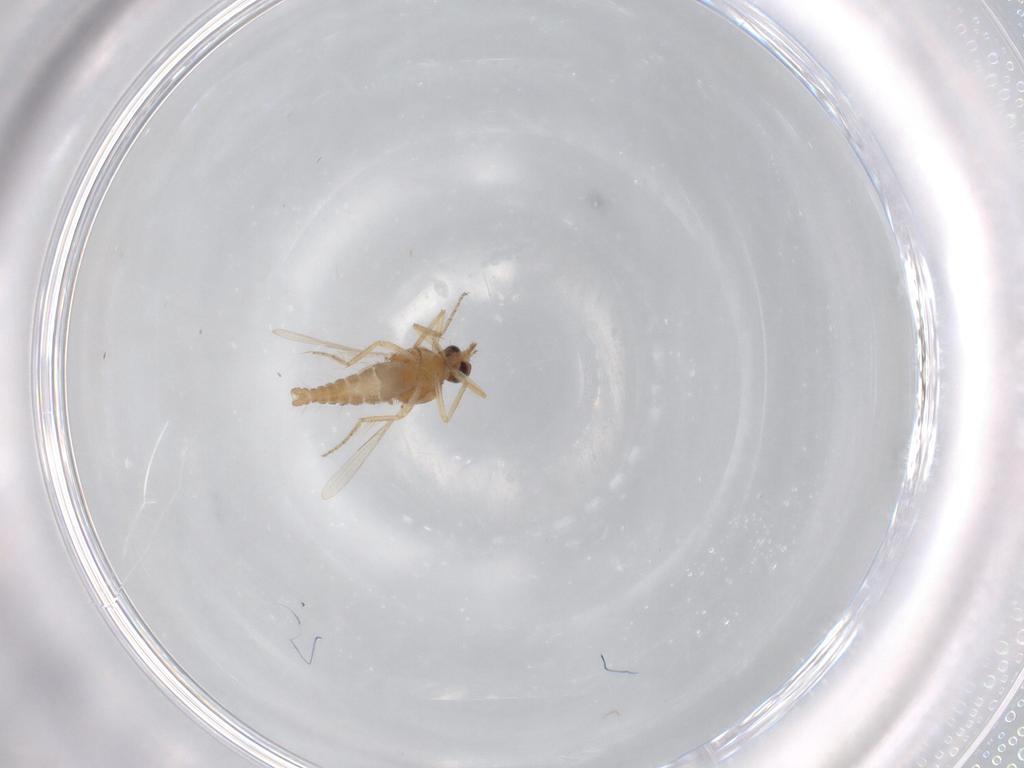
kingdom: Animalia
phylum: Arthropoda
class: Insecta
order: Diptera
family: Ceratopogonidae
